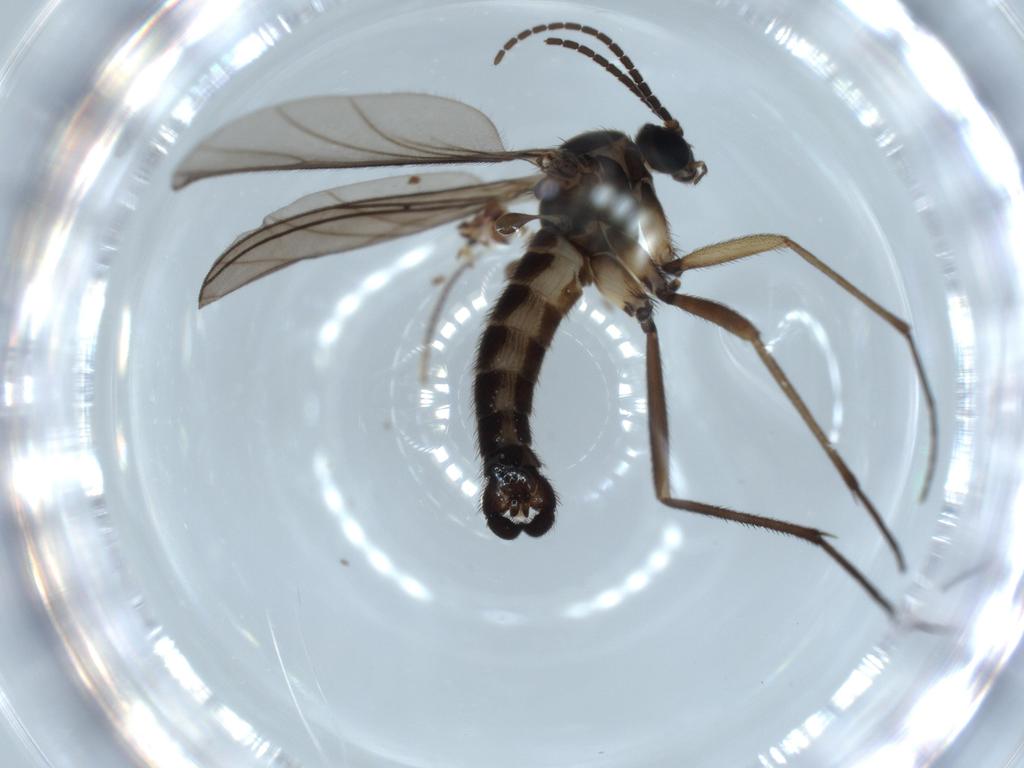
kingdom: Animalia
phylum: Arthropoda
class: Insecta
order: Diptera
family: Sciaridae
